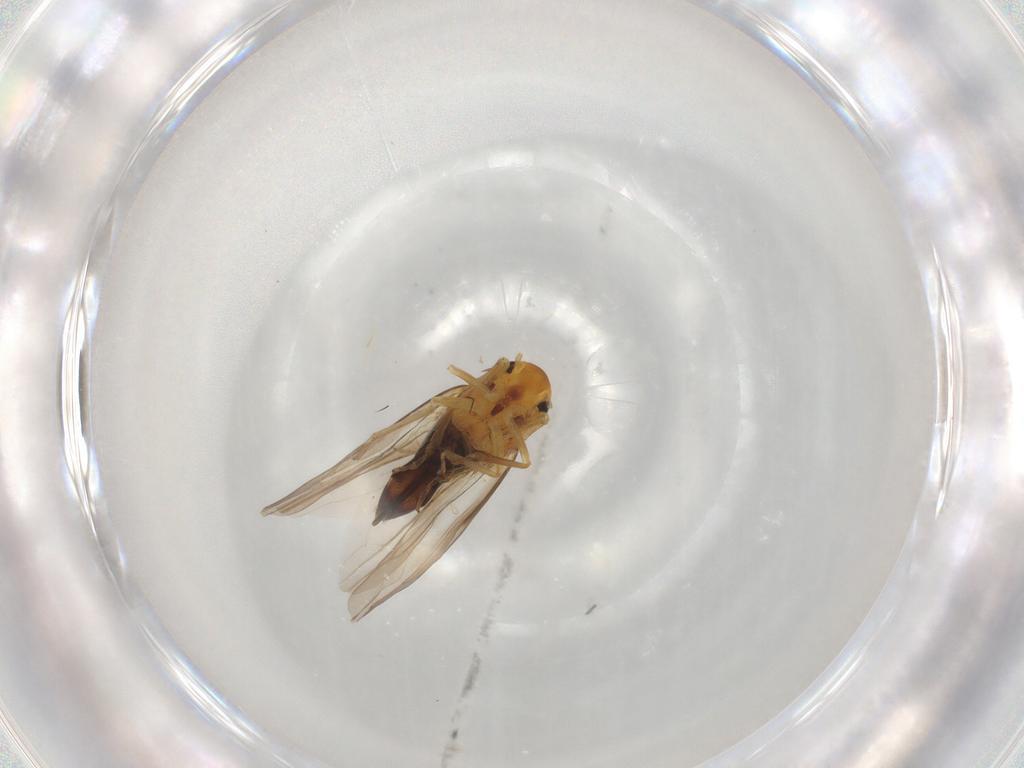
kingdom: Animalia
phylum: Arthropoda
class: Insecta
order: Hemiptera
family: Cicadellidae
